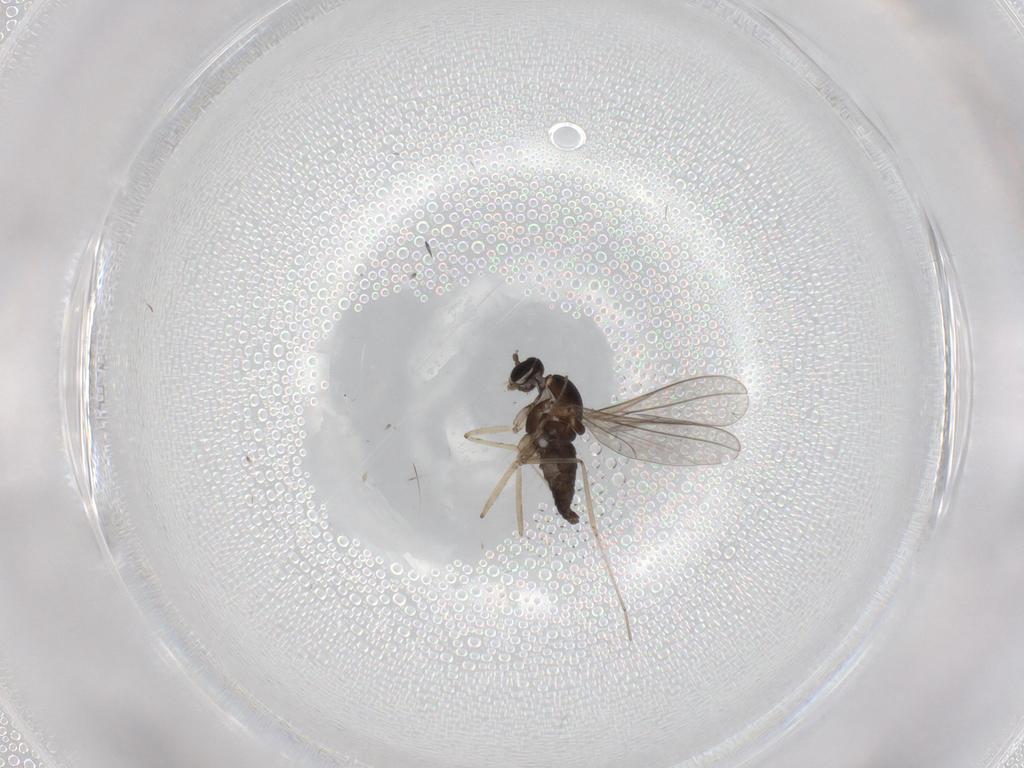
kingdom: Animalia
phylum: Arthropoda
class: Insecta
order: Diptera
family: Cecidomyiidae
